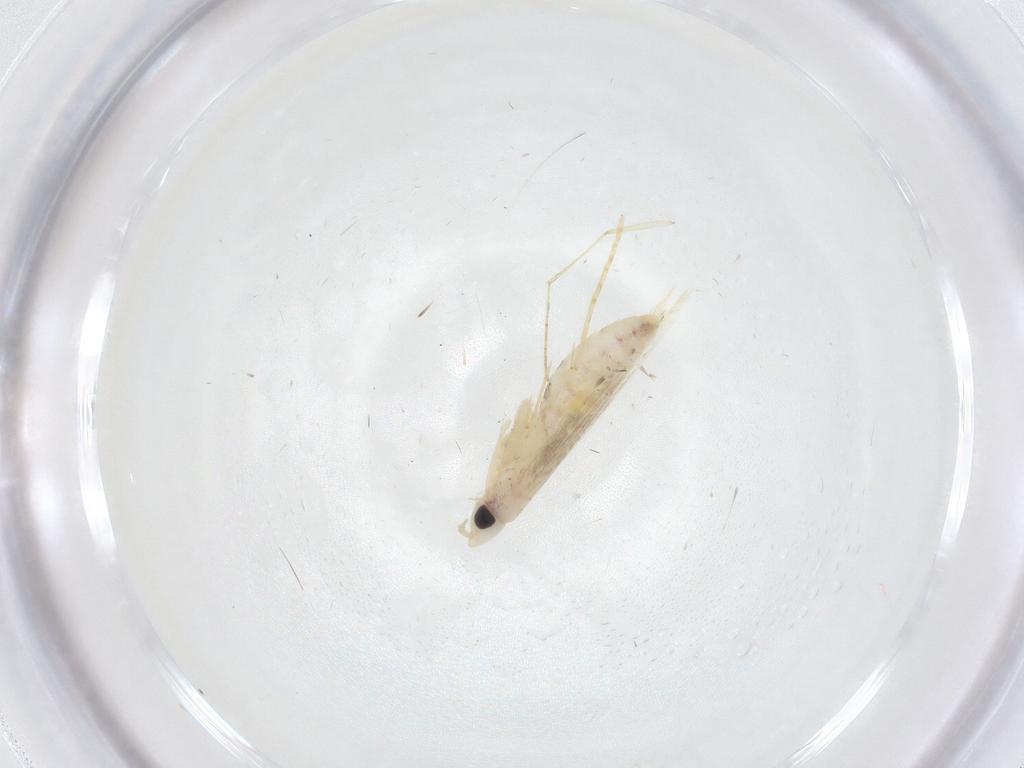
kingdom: Animalia
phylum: Arthropoda
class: Insecta
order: Lepidoptera
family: Tineidae
